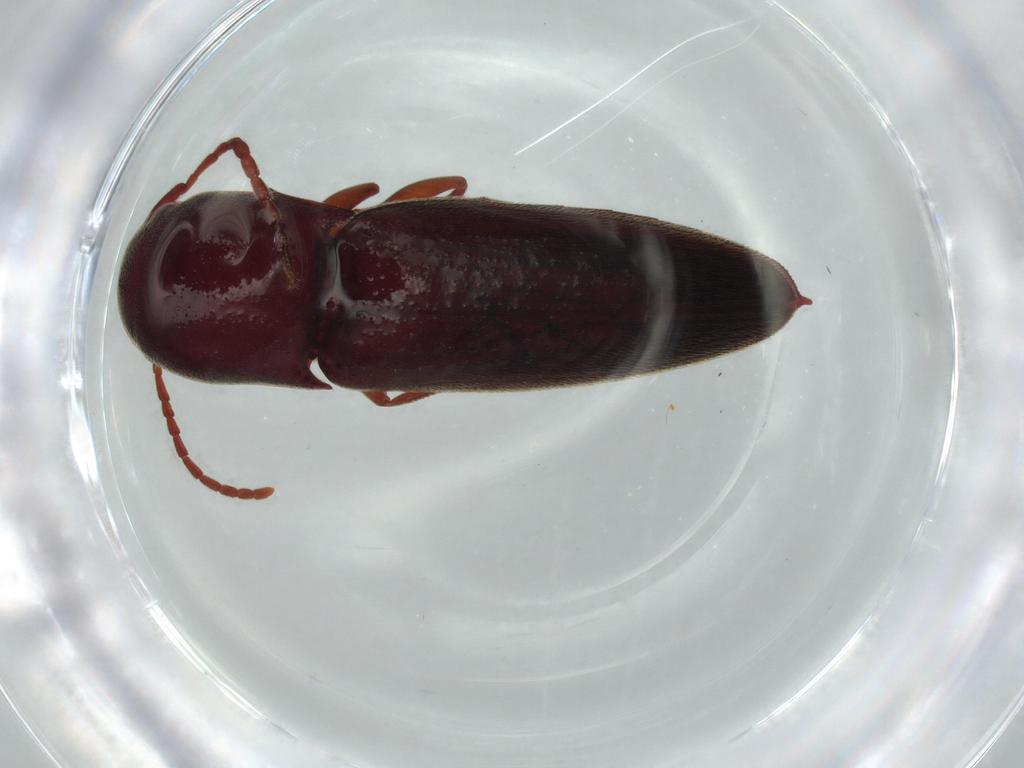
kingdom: Animalia
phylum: Arthropoda
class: Insecta
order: Coleoptera
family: Eucnemidae
